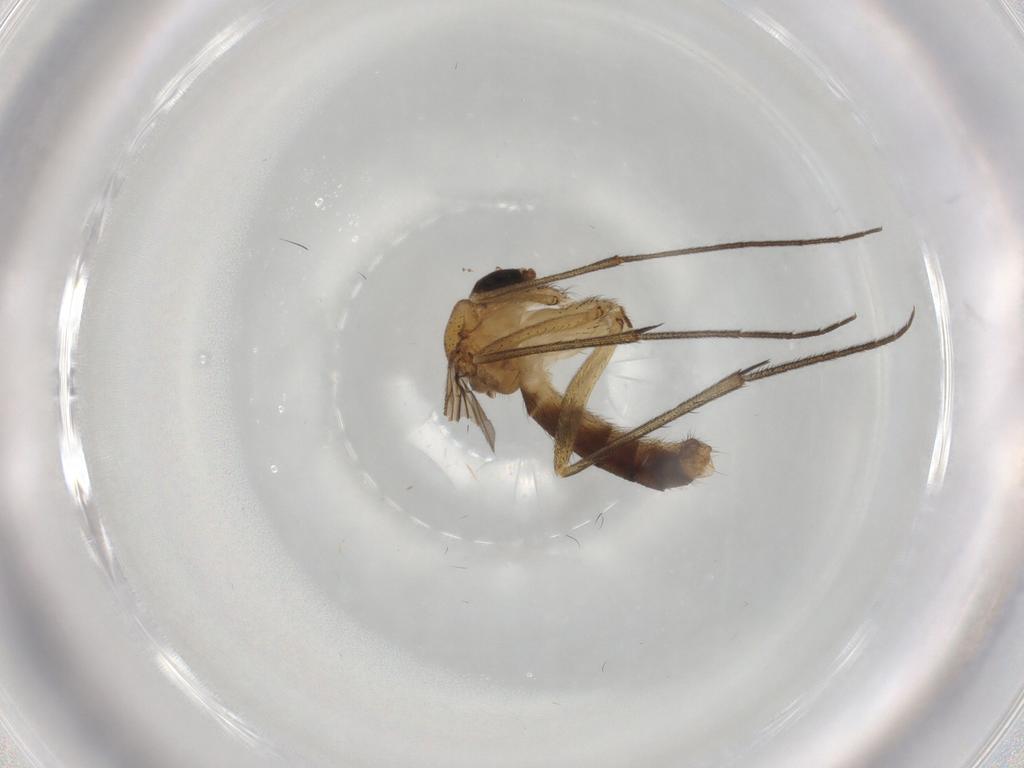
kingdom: Animalia
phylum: Arthropoda
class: Insecta
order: Diptera
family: Mycetophilidae
